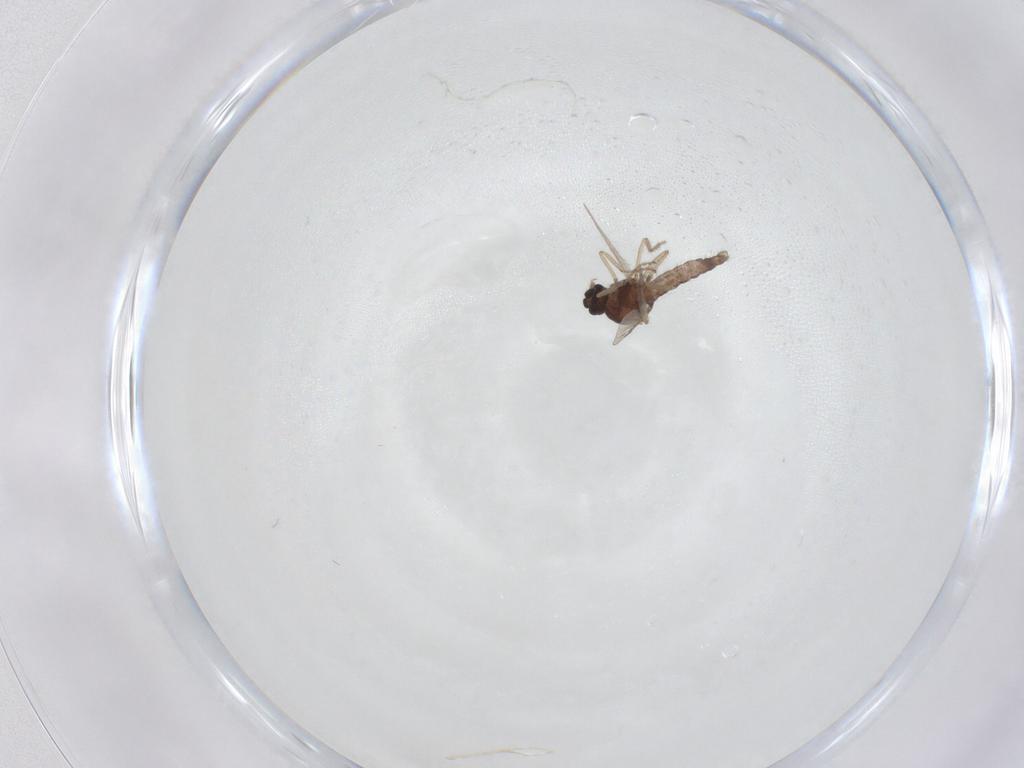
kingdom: Animalia
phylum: Arthropoda
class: Insecta
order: Diptera
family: Ceratopogonidae
